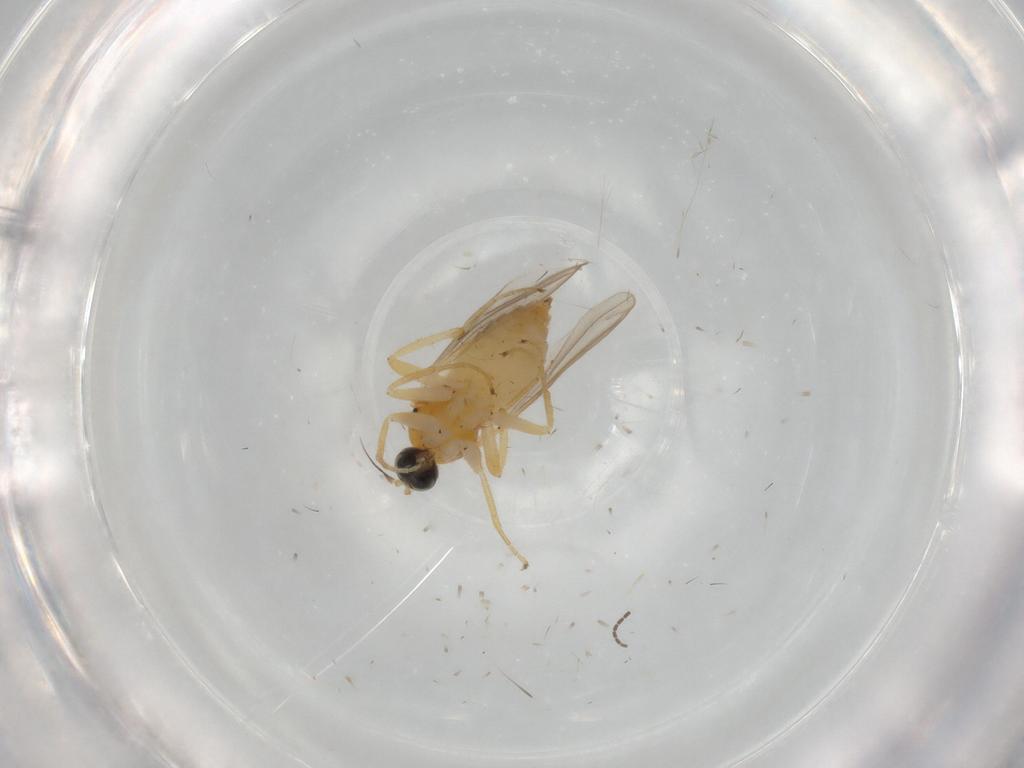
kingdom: Animalia
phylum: Arthropoda
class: Insecta
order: Diptera
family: Hybotidae
